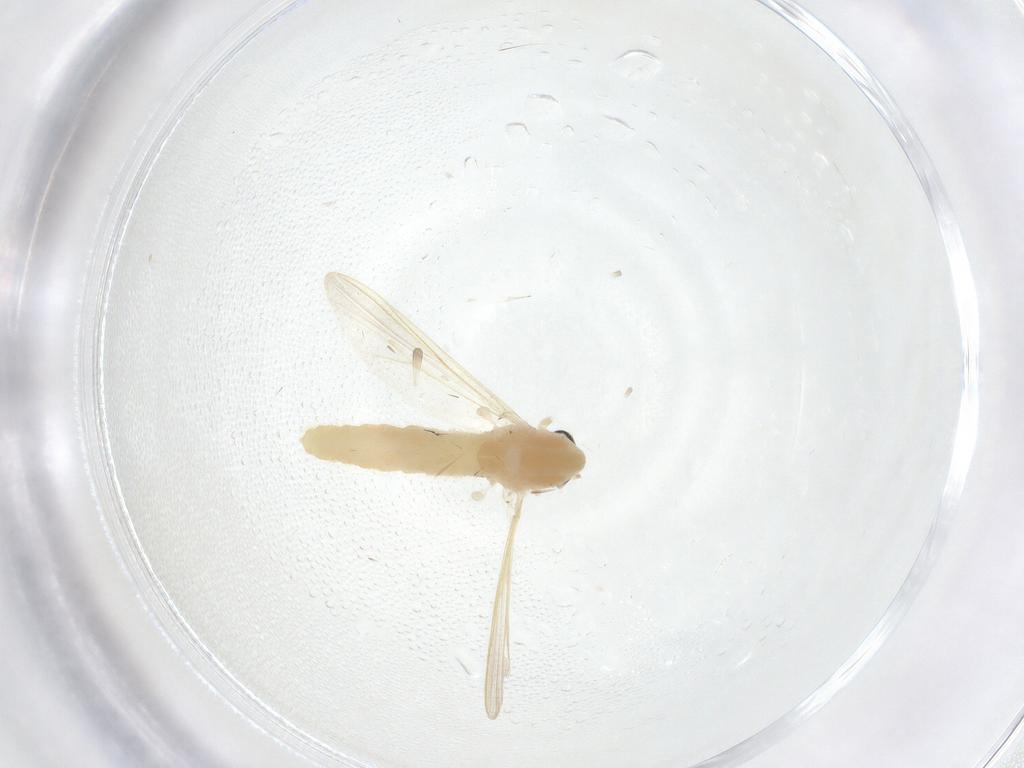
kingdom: Animalia
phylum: Arthropoda
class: Insecta
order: Diptera
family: Chironomidae
